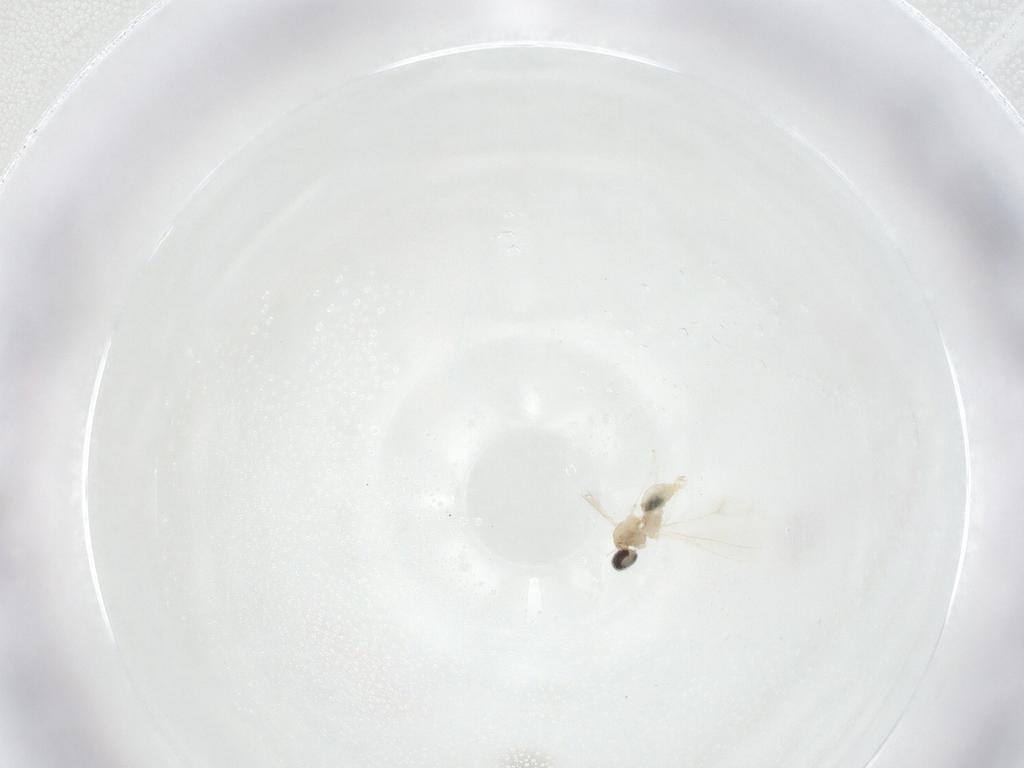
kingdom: Animalia
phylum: Arthropoda
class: Insecta
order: Diptera
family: Cecidomyiidae
